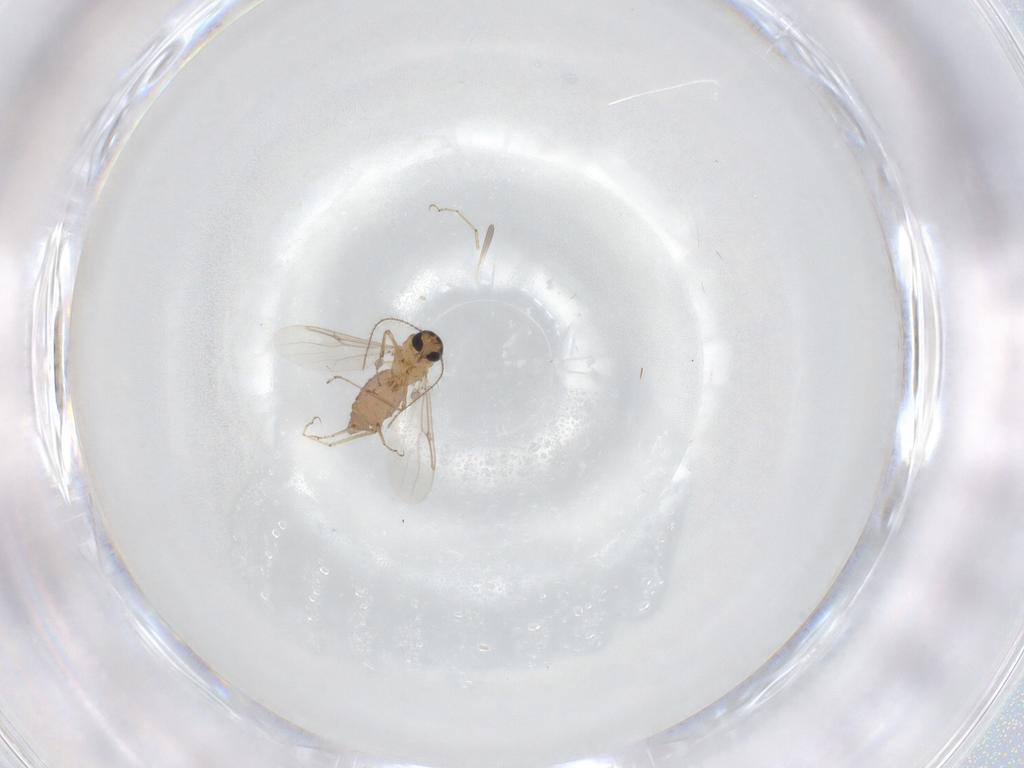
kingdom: Animalia
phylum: Arthropoda
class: Insecta
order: Diptera
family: Ceratopogonidae
